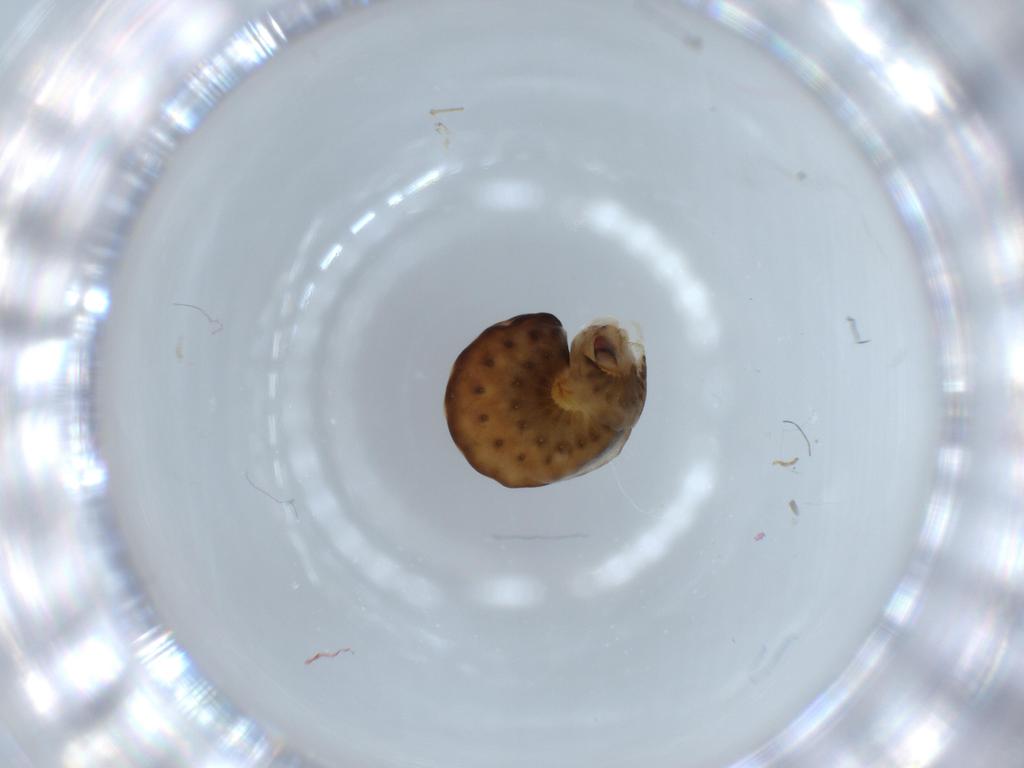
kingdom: Animalia
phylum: Arthropoda
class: Insecta
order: Hymenoptera
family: Dryinidae
